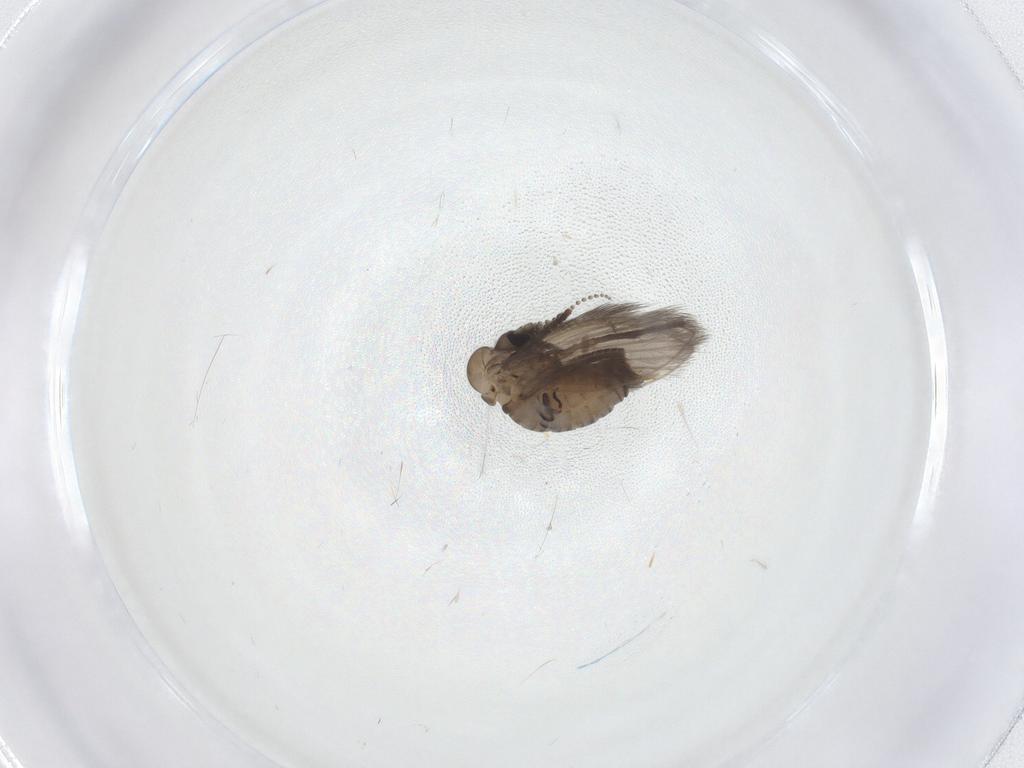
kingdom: Animalia
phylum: Arthropoda
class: Insecta
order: Diptera
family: Psychodidae
